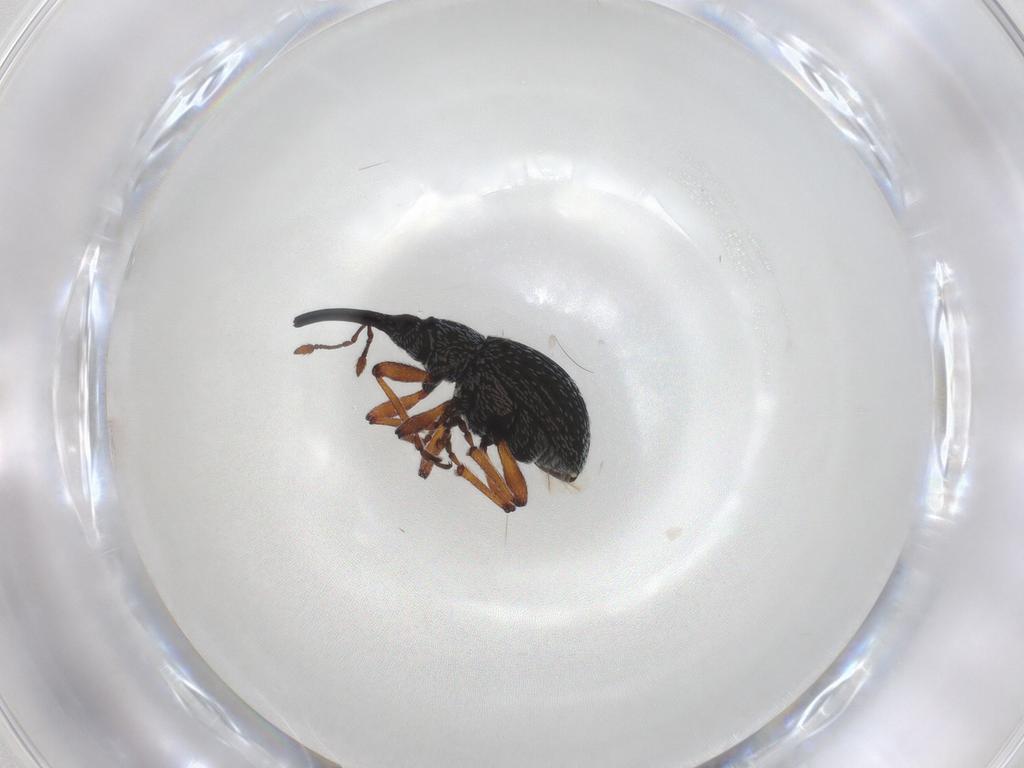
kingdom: Animalia
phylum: Arthropoda
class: Insecta
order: Coleoptera
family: Brentidae
